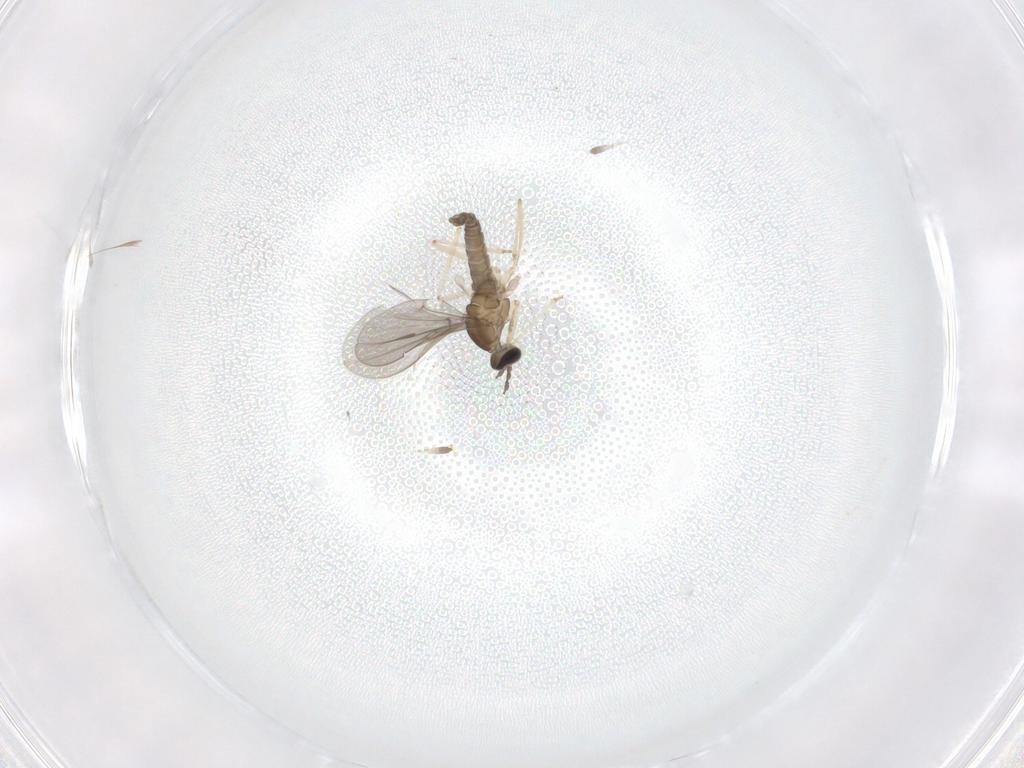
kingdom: Animalia
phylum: Arthropoda
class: Insecta
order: Diptera
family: Cecidomyiidae
